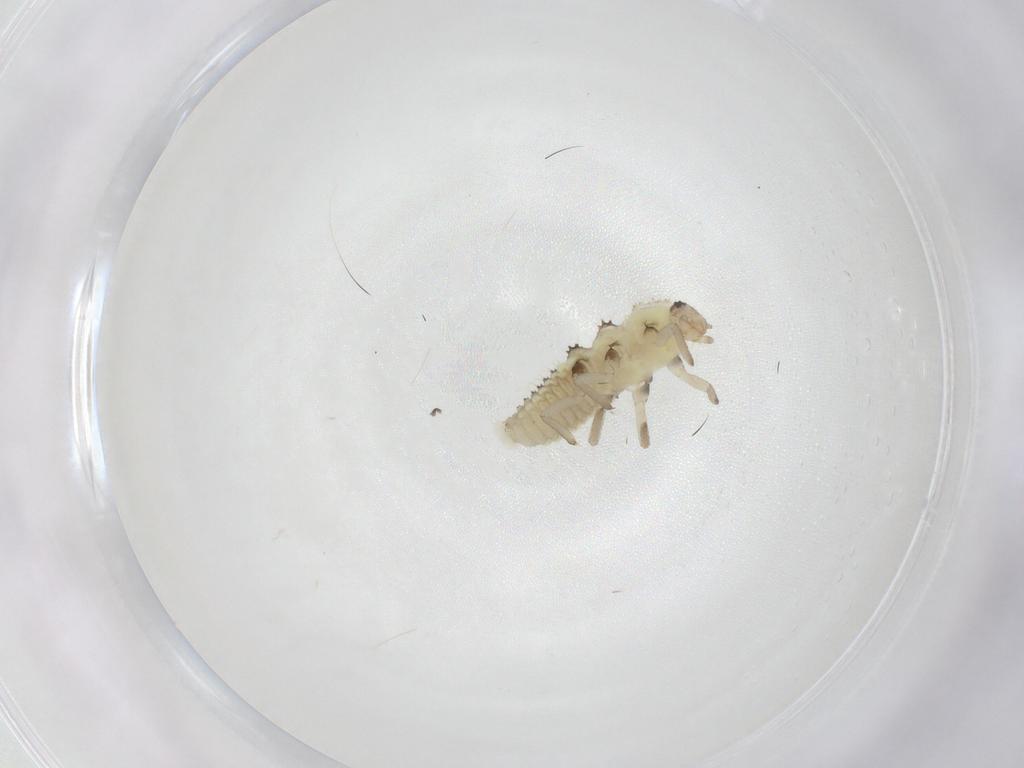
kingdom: Animalia
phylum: Arthropoda
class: Insecta
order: Coleoptera
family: Coccinellidae
